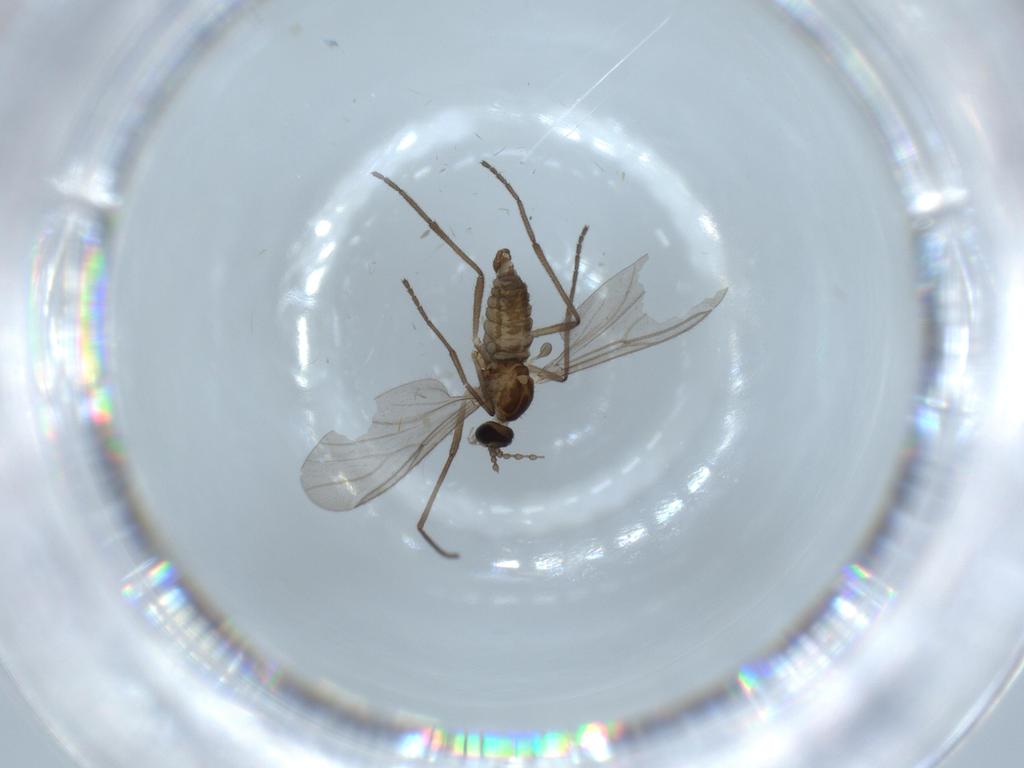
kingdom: Animalia
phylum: Arthropoda
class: Insecta
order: Diptera
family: Cecidomyiidae
